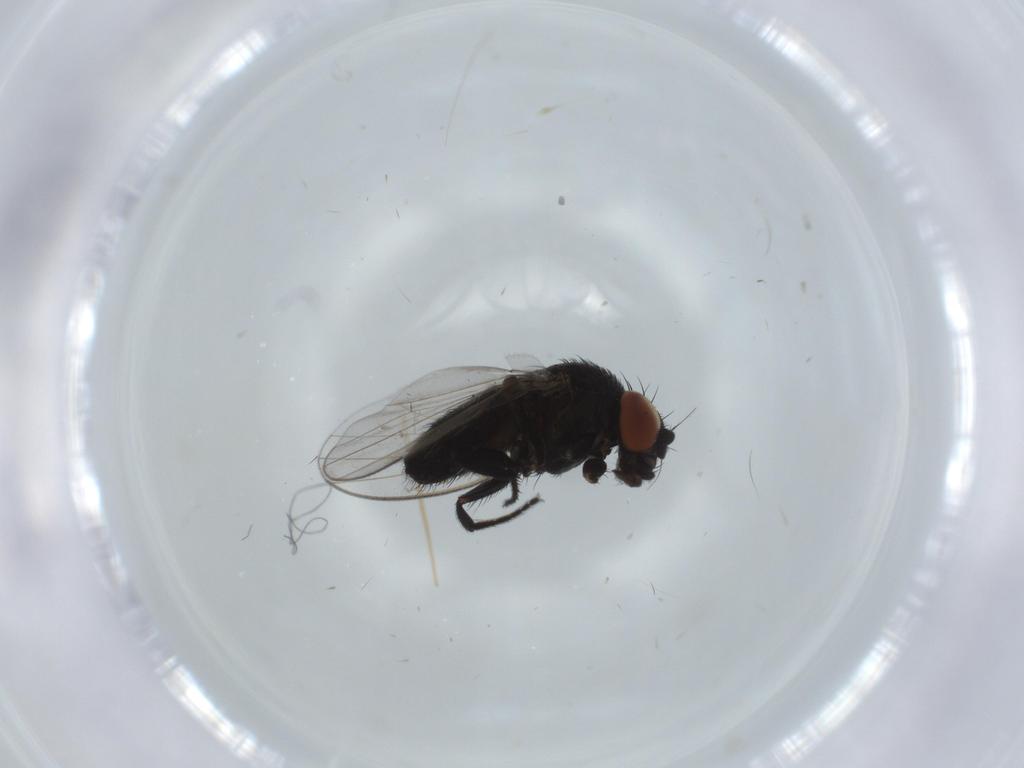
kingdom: Animalia
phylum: Arthropoda
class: Insecta
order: Diptera
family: Milichiidae
